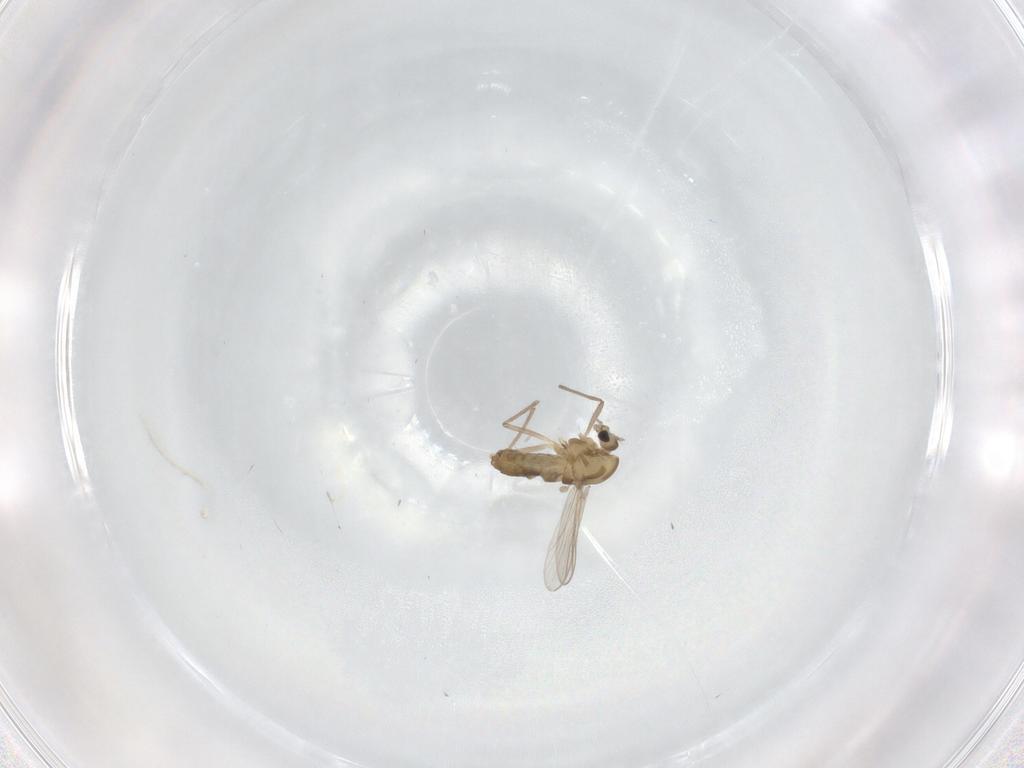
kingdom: Animalia
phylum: Arthropoda
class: Insecta
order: Diptera
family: Chironomidae
